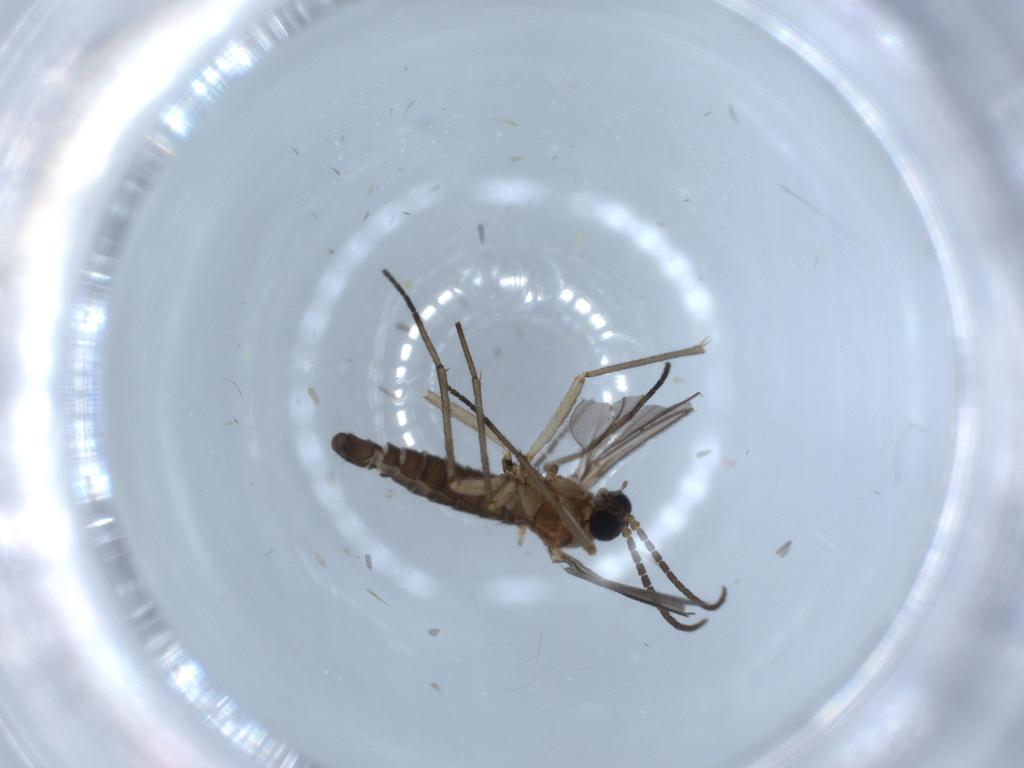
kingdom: Animalia
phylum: Arthropoda
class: Insecta
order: Diptera
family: Sciaridae
